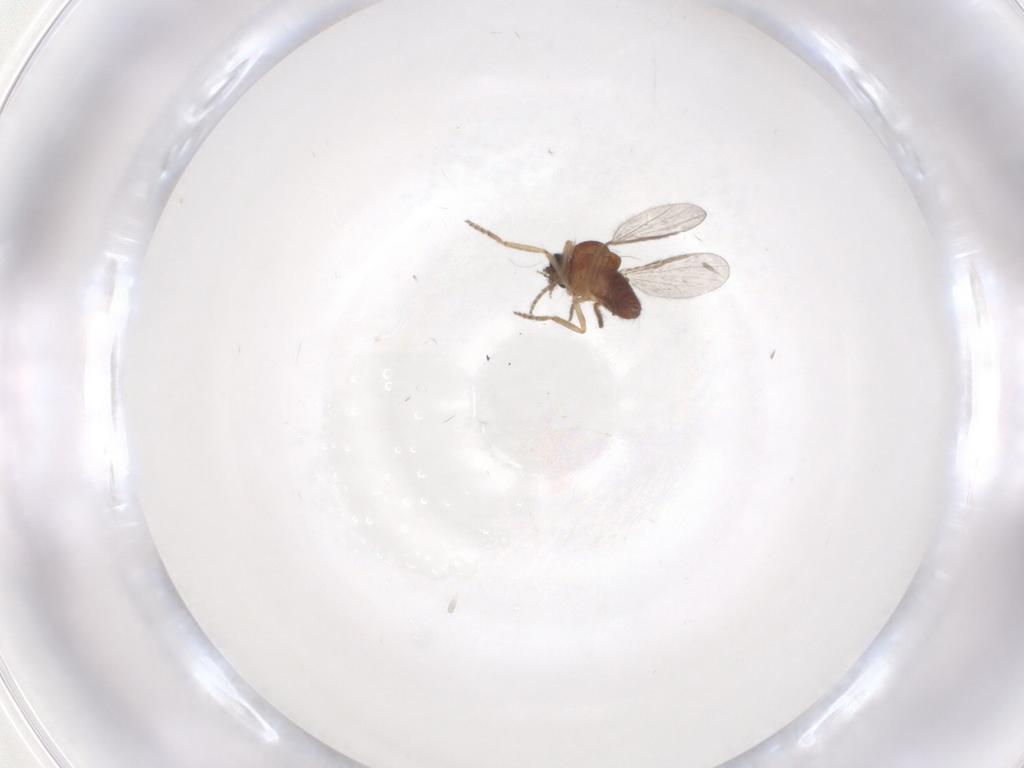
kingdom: Animalia
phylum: Arthropoda
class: Insecta
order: Diptera
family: Ceratopogonidae
